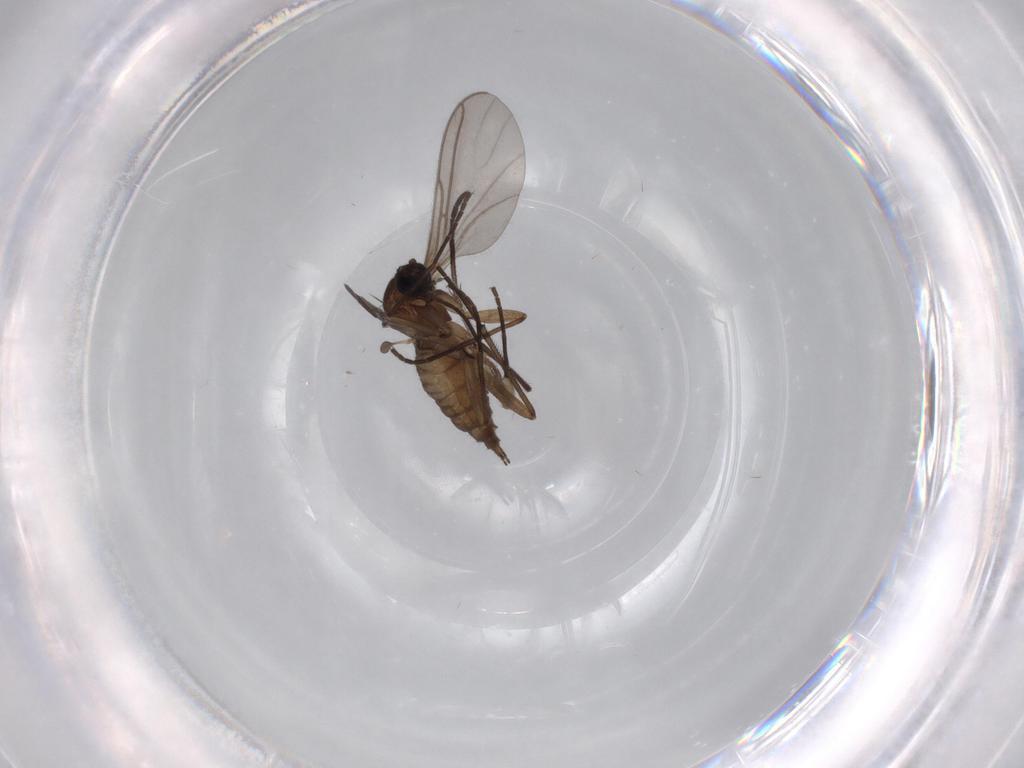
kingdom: Animalia
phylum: Arthropoda
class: Insecta
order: Diptera
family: Sciaridae
